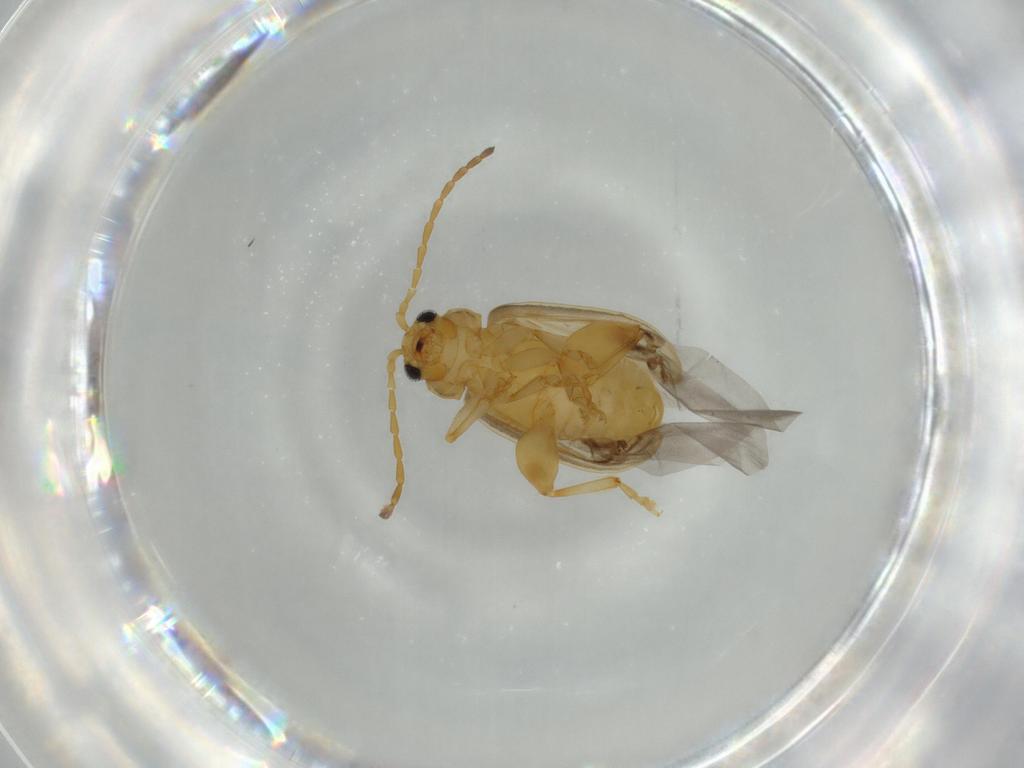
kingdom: Animalia
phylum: Arthropoda
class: Insecta
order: Coleoptera
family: Chrysomelidae
